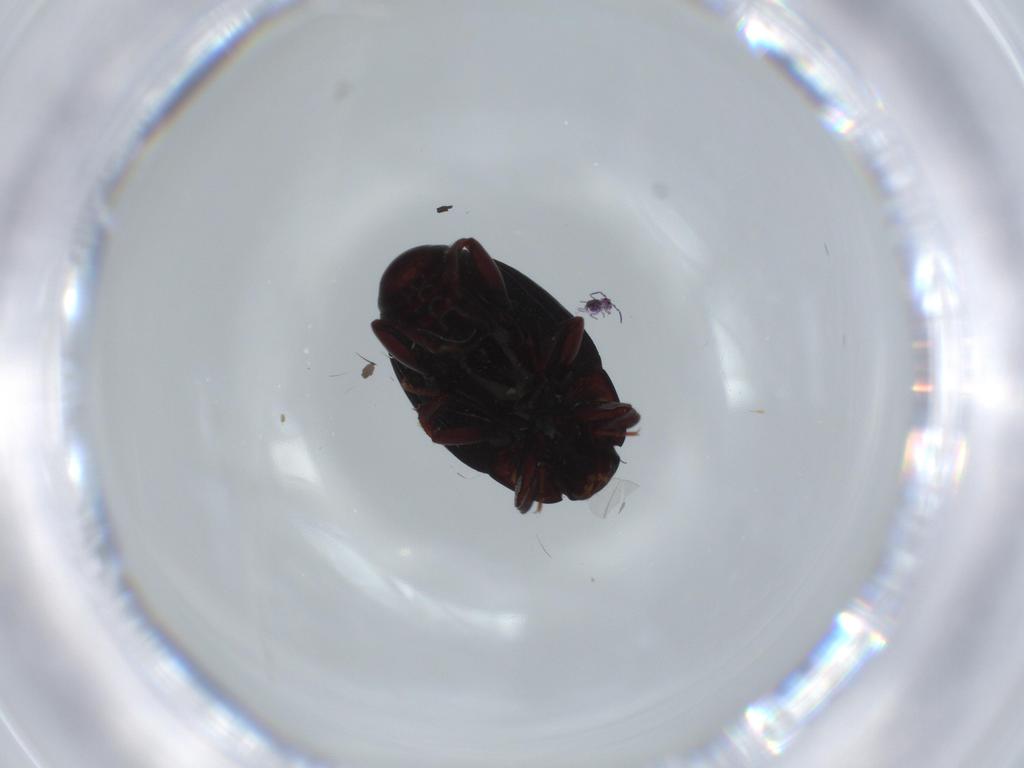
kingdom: Animalia
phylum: Arthropoda
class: Insecta
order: Coleoptera
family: Histeridae
